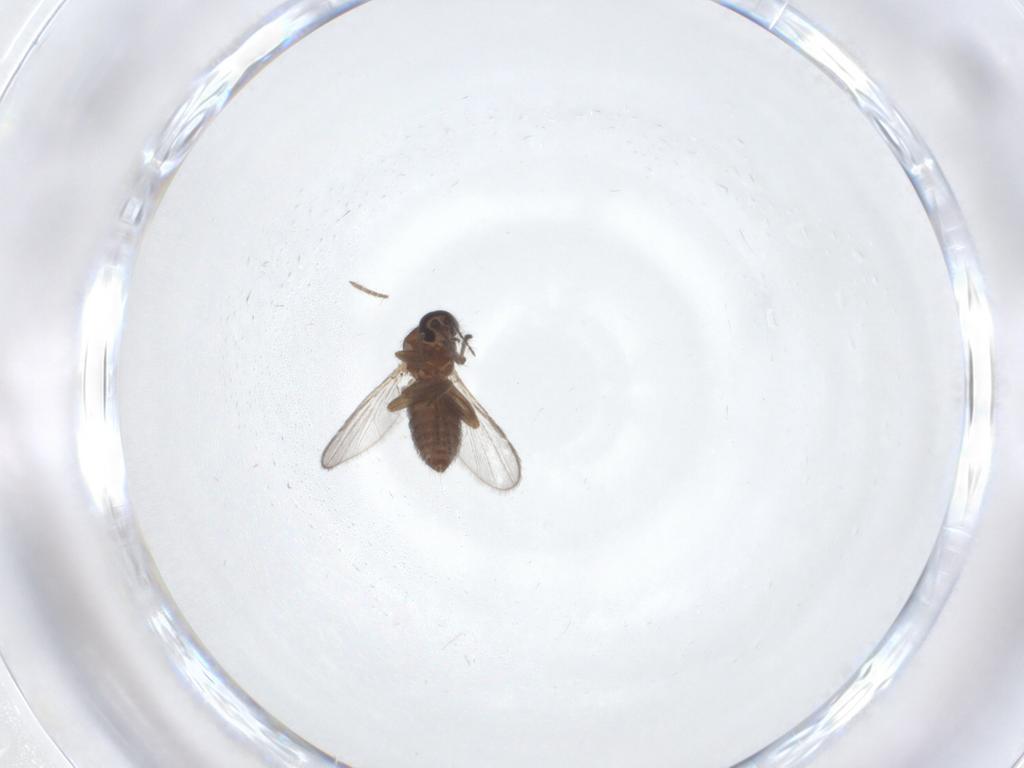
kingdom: Animalia
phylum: Arthropoda
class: Insecta
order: Diptera
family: Ceratopogonidae
